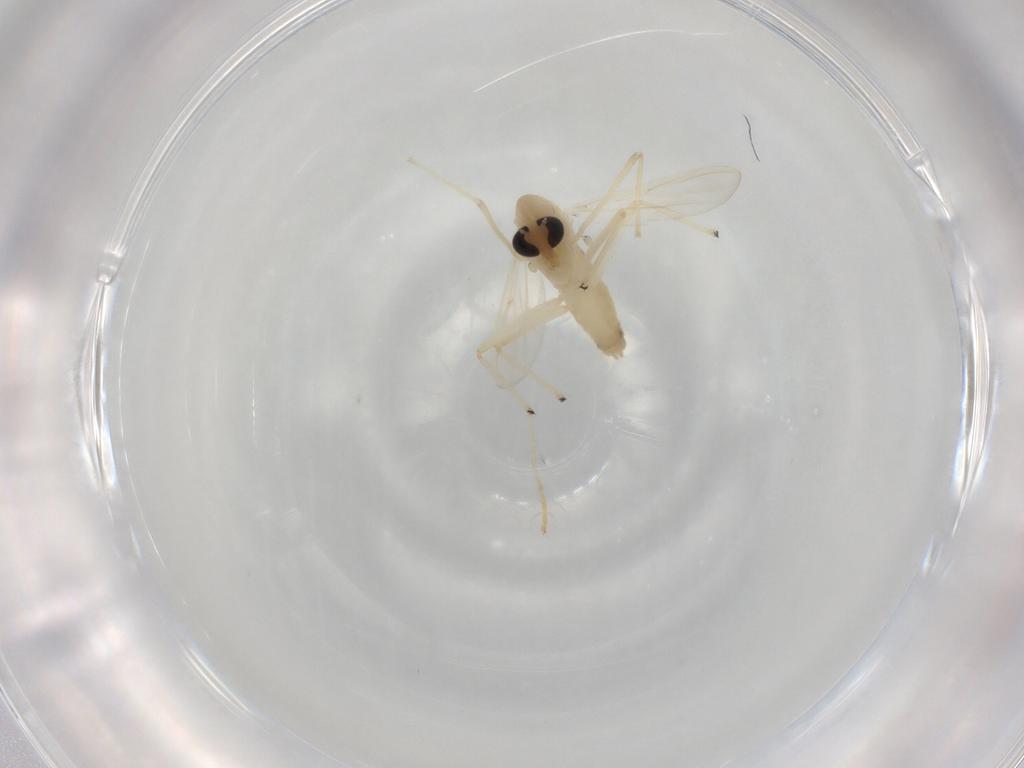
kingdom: Animalia
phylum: Arthropoda
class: Insecta
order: Diptera
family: Chironomidae
